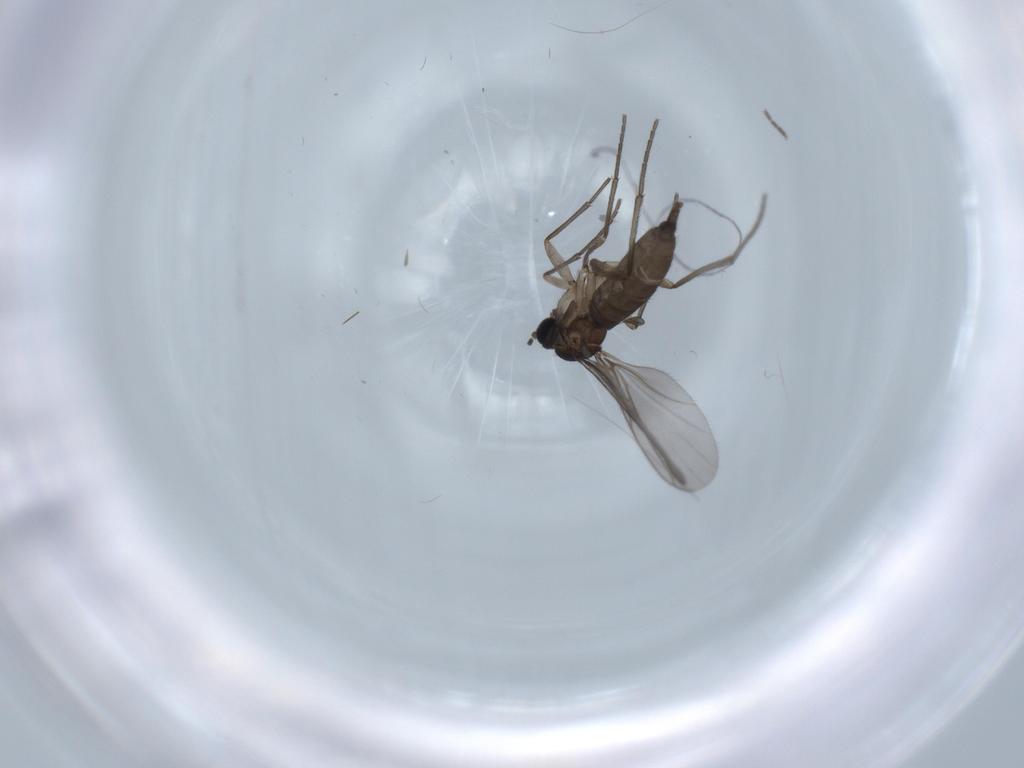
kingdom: Animalia
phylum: Arthropoda
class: Insecta
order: Diptera
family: Sciaridae
